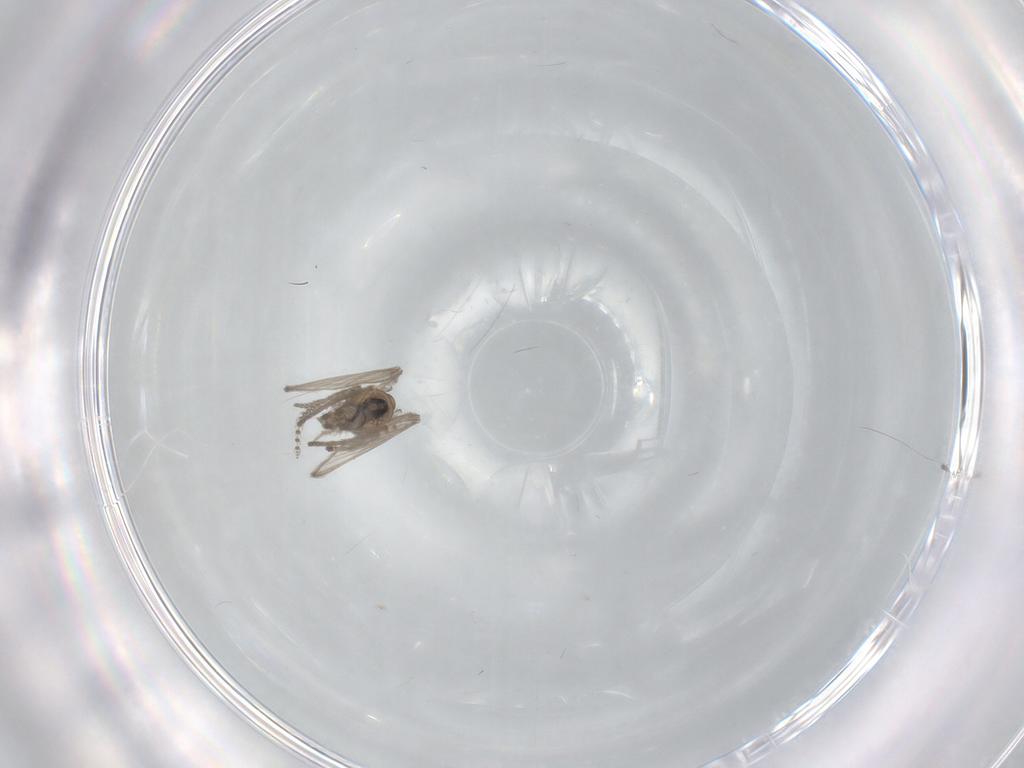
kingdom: Animalia
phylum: Arthropoda
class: Insecta
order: Diptera
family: Psychodidae
